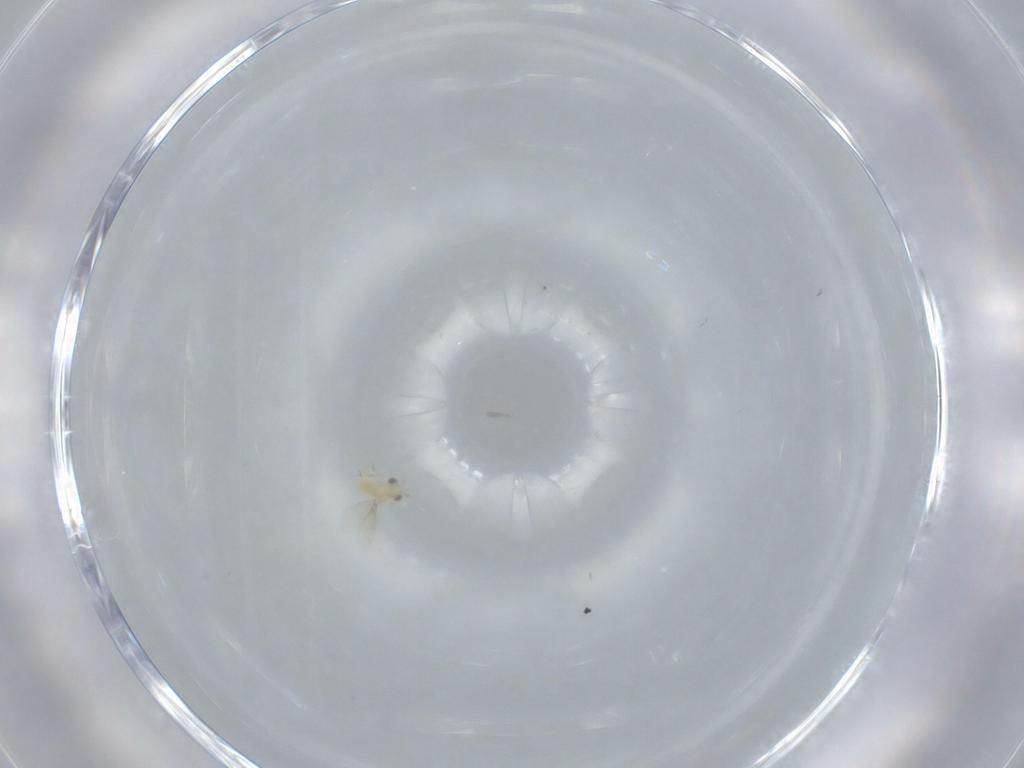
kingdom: Animalia
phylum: Arthropoda
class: Insecta
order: Hymenoptera
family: Aphelinidae
